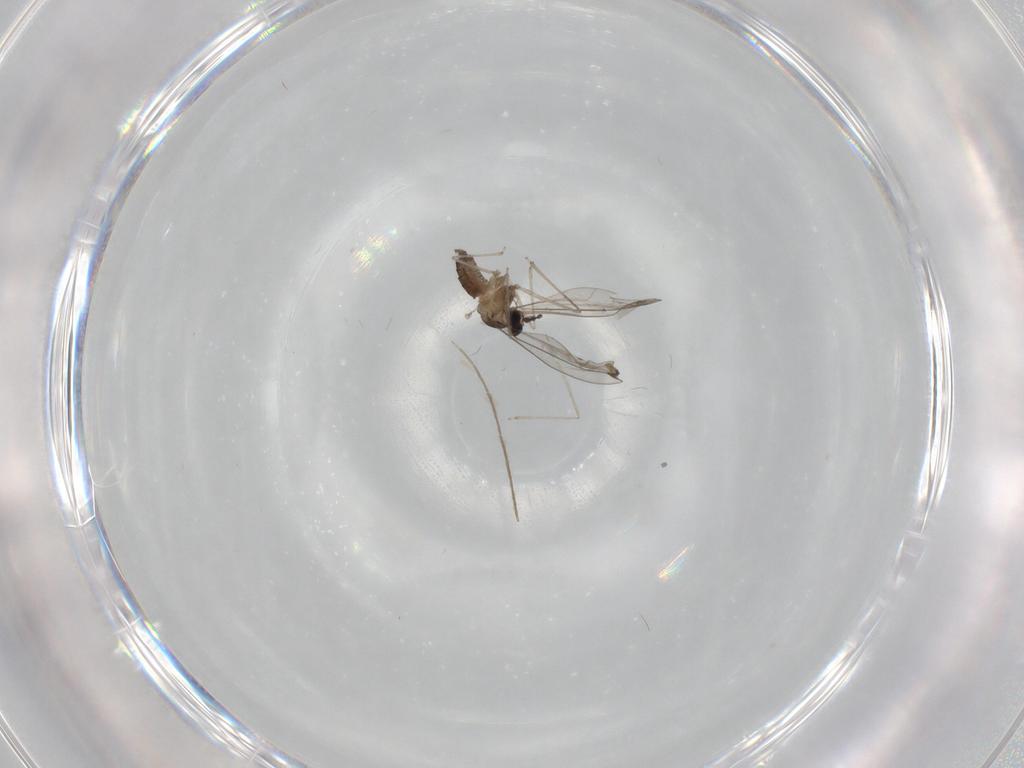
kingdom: Animalia
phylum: Arthropoda
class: Insecta
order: Diptera
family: Cecidomyiidae
